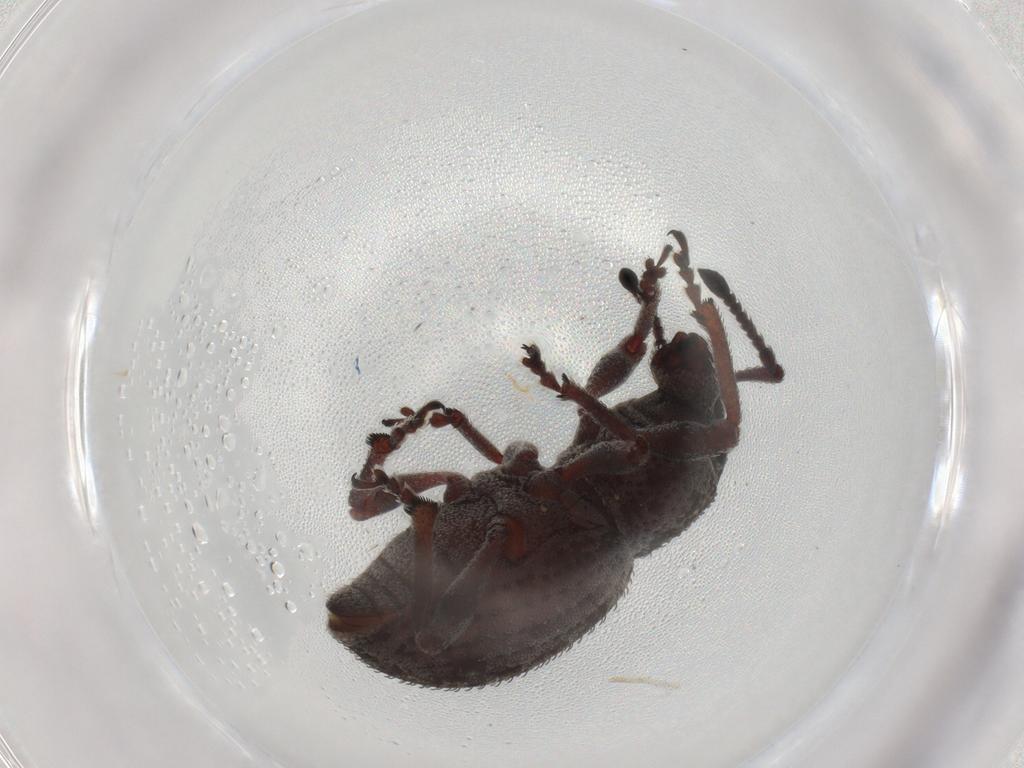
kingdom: Animalia
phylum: Arthropoda
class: Insecta
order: Coleoptera
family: Curculionidae
